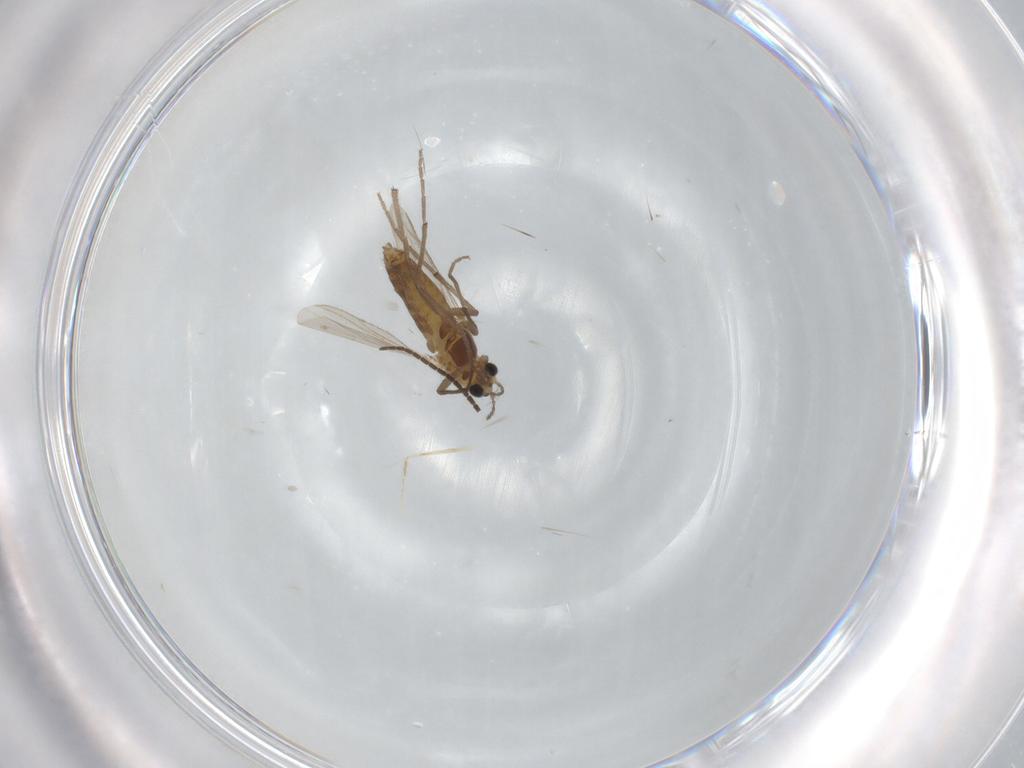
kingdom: Animalia
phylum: Arthropoda
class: Insecta
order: Diptera
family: Chironomidae
